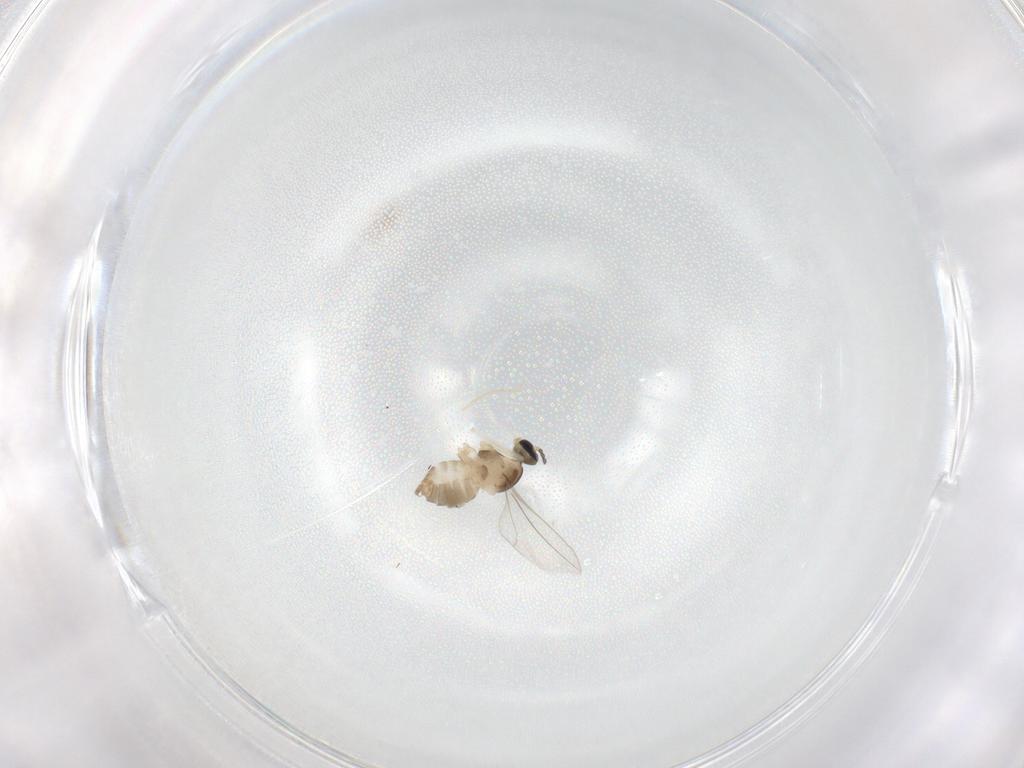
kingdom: Animalia
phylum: Arthropoda
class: Insecta
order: Diptera
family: Cecidomyiidae
